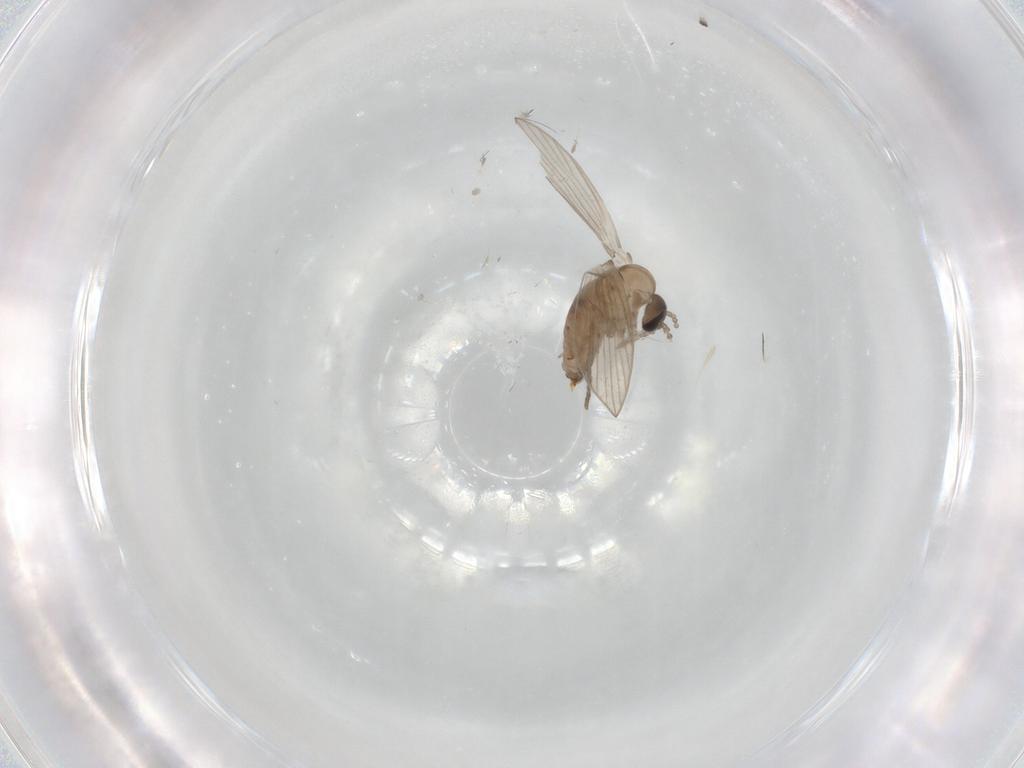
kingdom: Animalia
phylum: Arthropoda
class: Insecta
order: Diptera
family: Psychodidae
